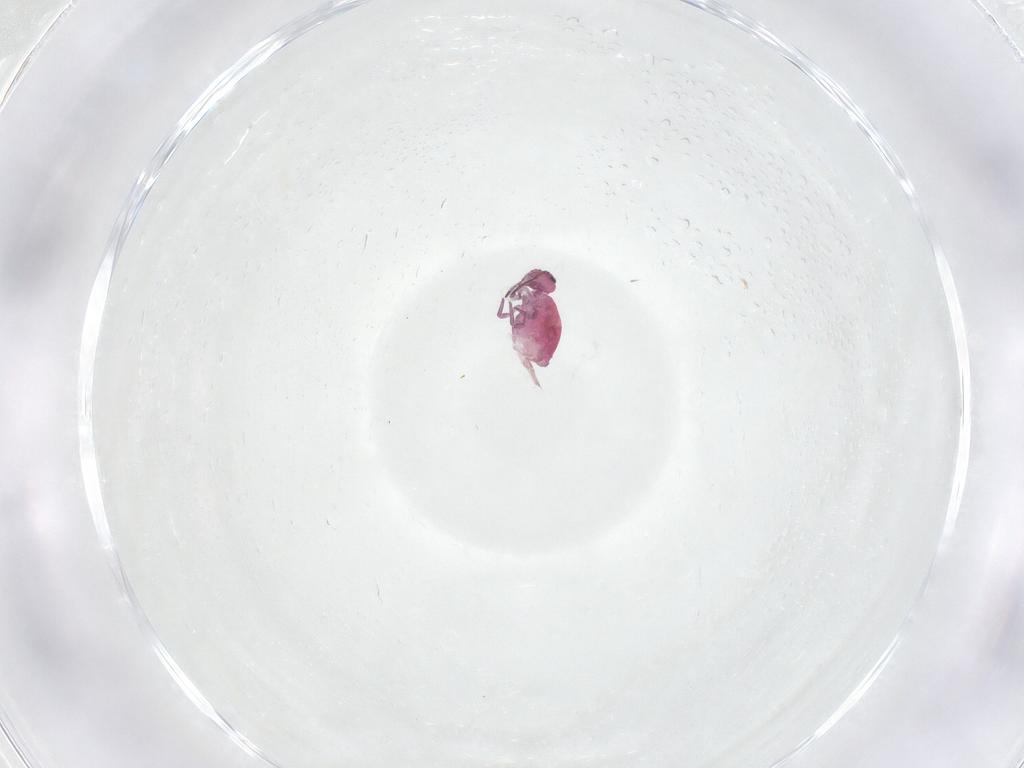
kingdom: Animalia
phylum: Arthropoda
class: Collembola
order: Symphypleona
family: Sminthuridae
